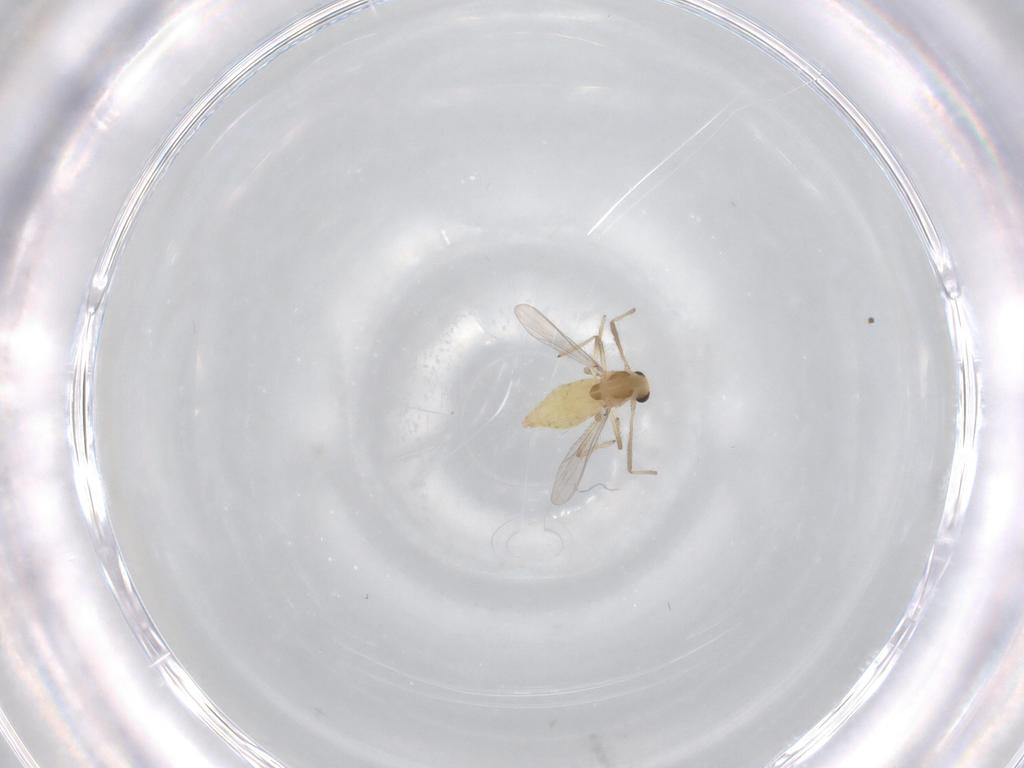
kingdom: Animalia
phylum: Arthropoda
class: Insecta
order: Diptera
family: Chironomidae
